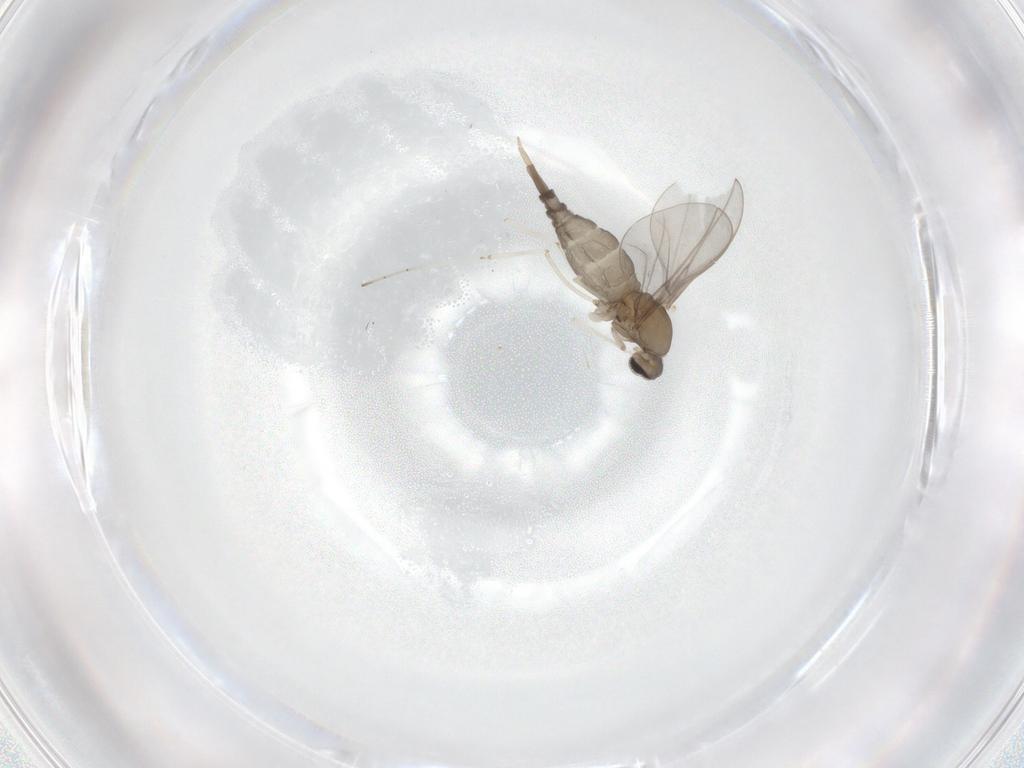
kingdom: Animalia
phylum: Arthropoda
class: Insecta
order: Diptera
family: Cecidomyiidae
